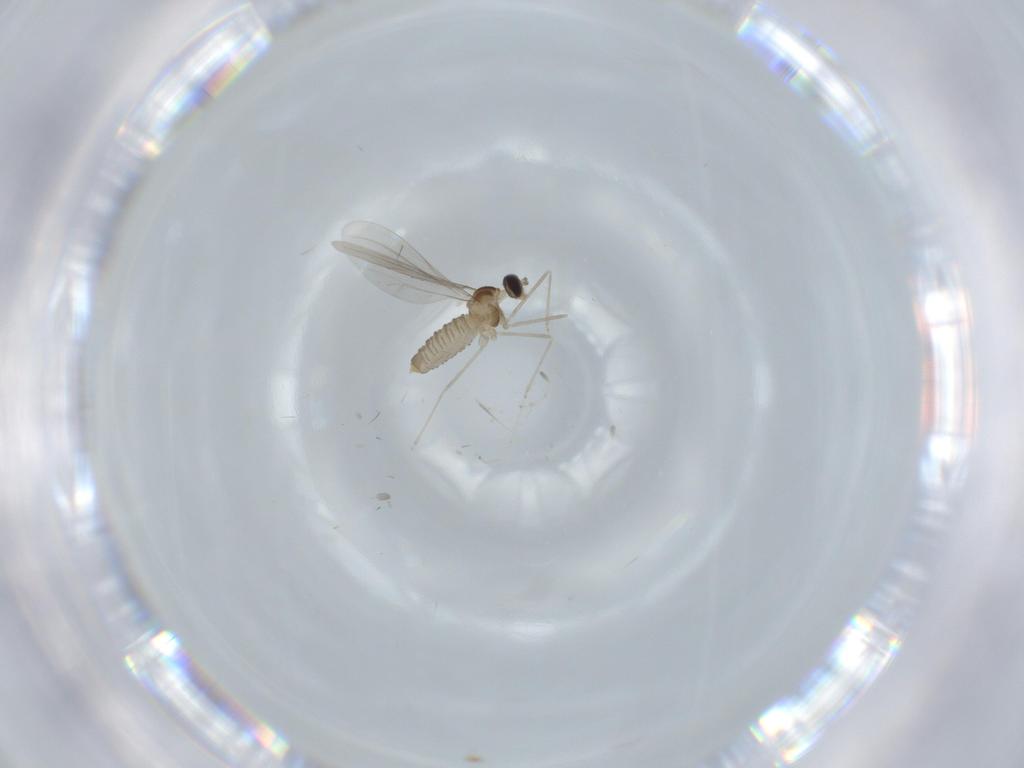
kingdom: Animalia
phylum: Arthropoda
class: Insecta
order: Diptera
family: Cecidomyiidae
